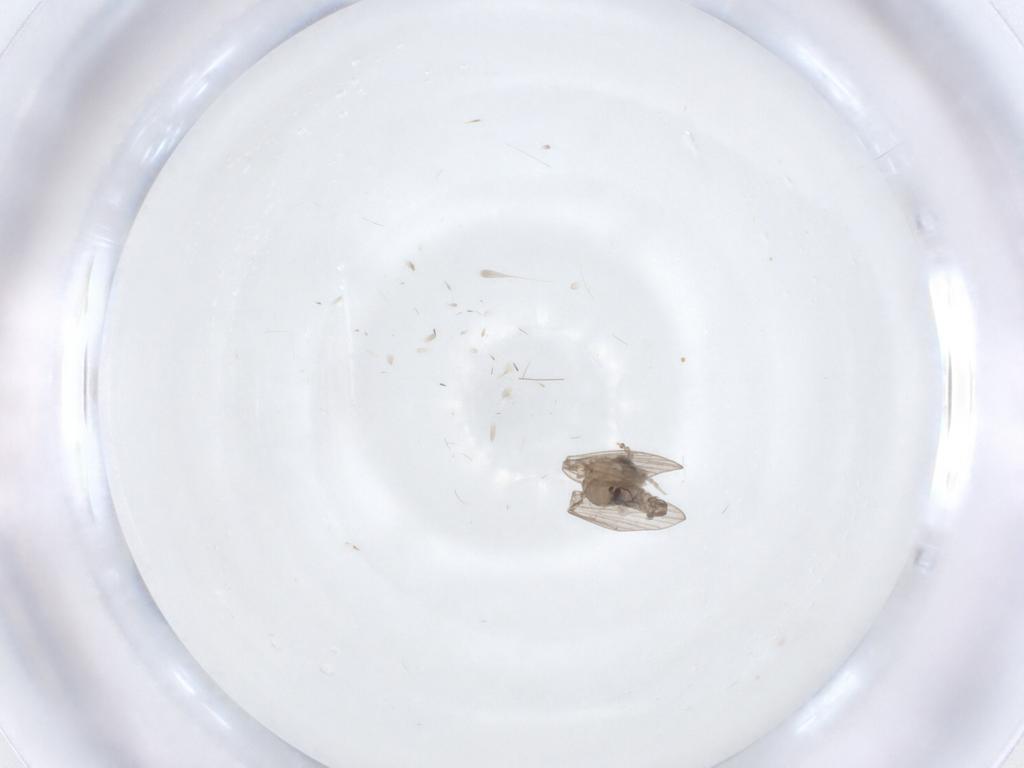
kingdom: Animalia
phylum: Arthropoda
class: Insecta
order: Diptera
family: Psychodidae
